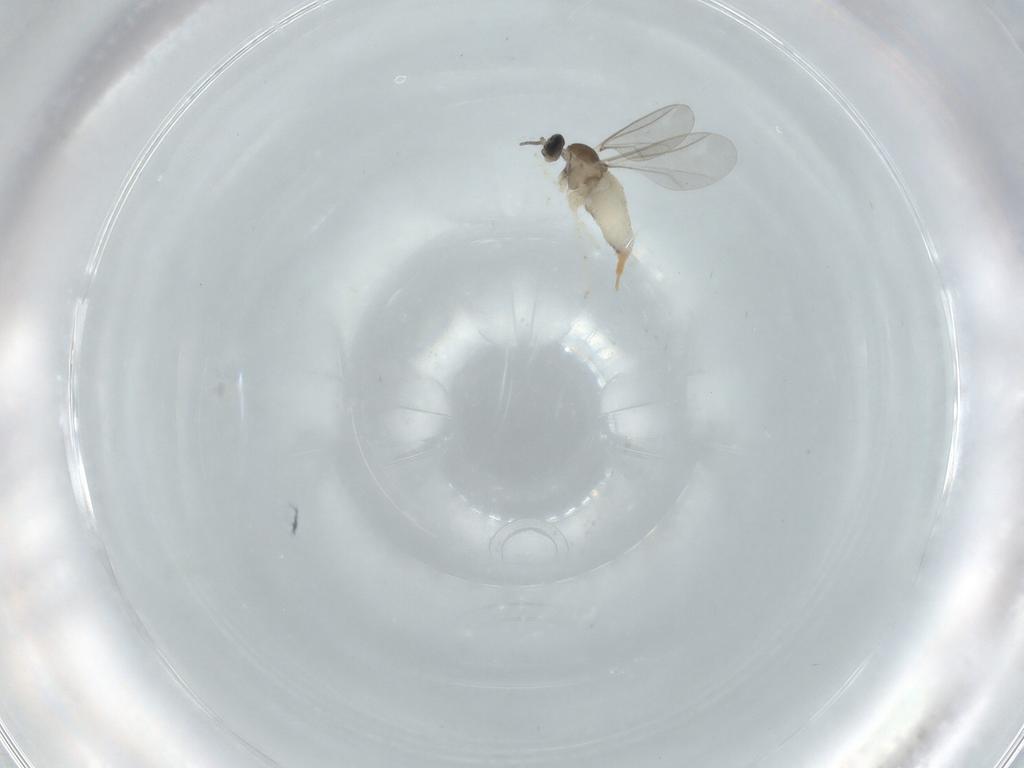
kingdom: Animalia
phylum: Arthropoda
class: Insecta
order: Diptera
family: Cecidomyiidae
